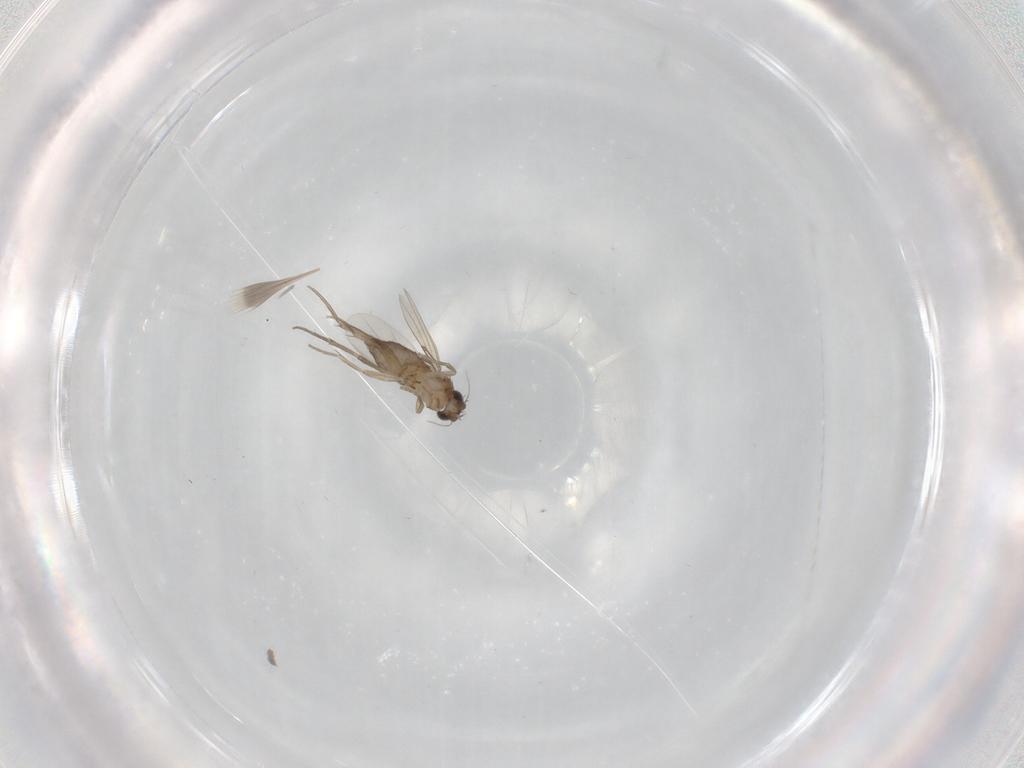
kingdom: Animalia
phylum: Arthropoda
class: Insecta
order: Diptera
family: Phoridae
